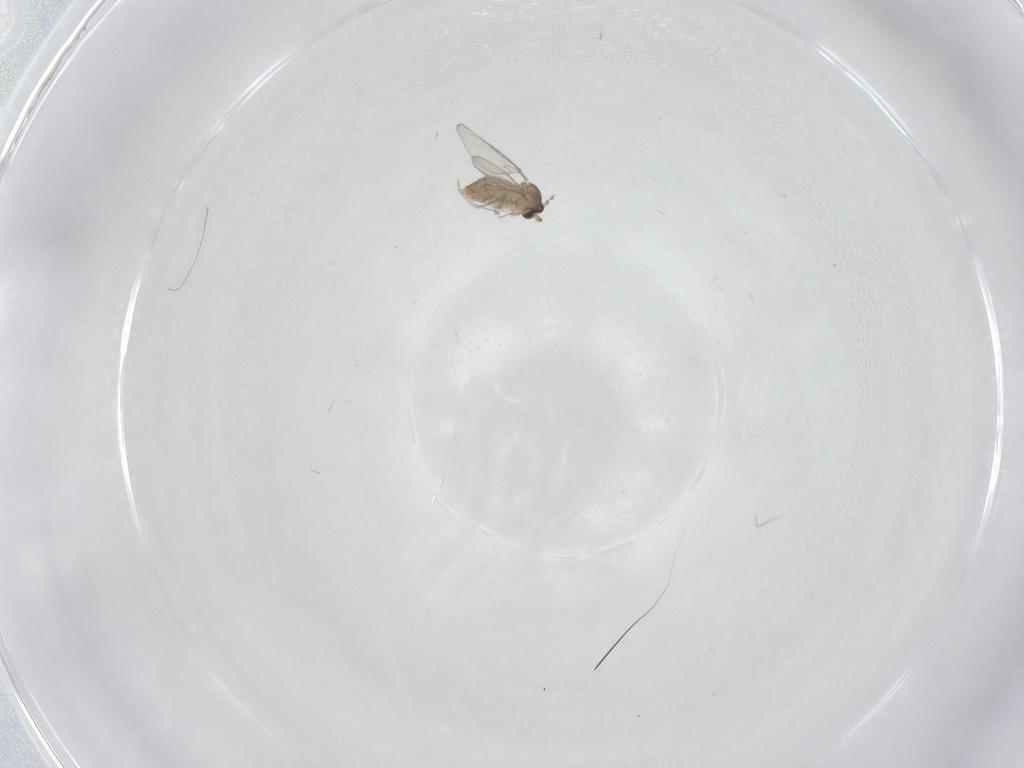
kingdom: Animalia
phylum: Arthropoda
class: Insecta
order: Diptera
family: Cecidomyiidae
